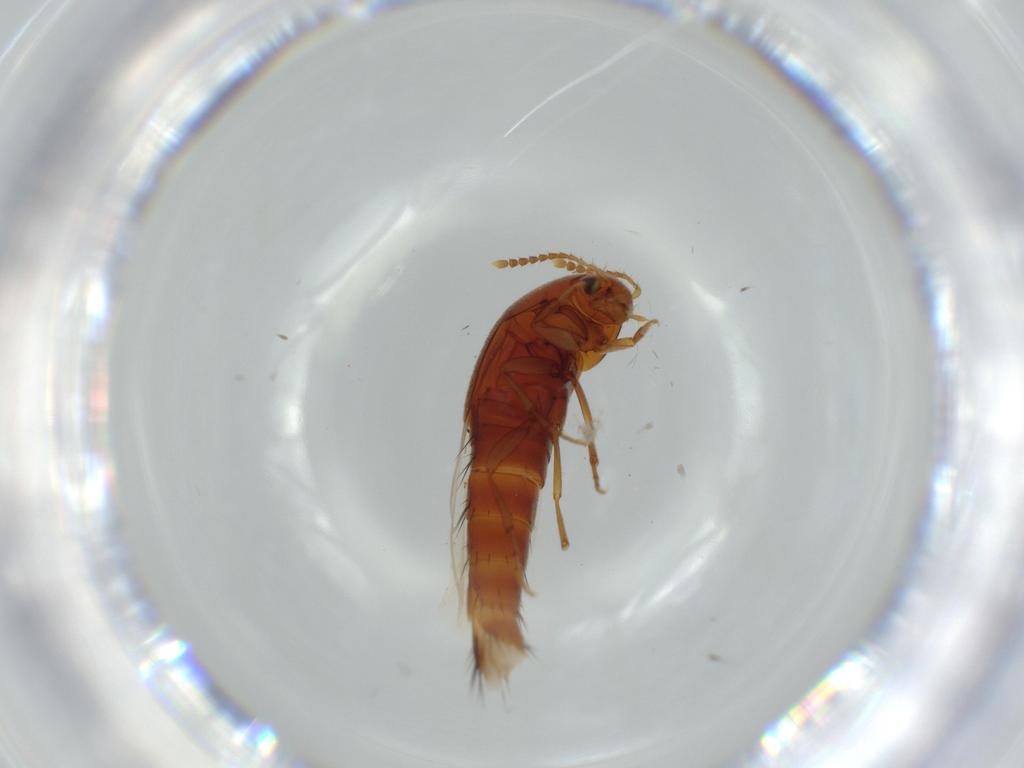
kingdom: Animalia
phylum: Arthropoda
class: Insecta
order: Coleoptera
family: Staphylinidae
